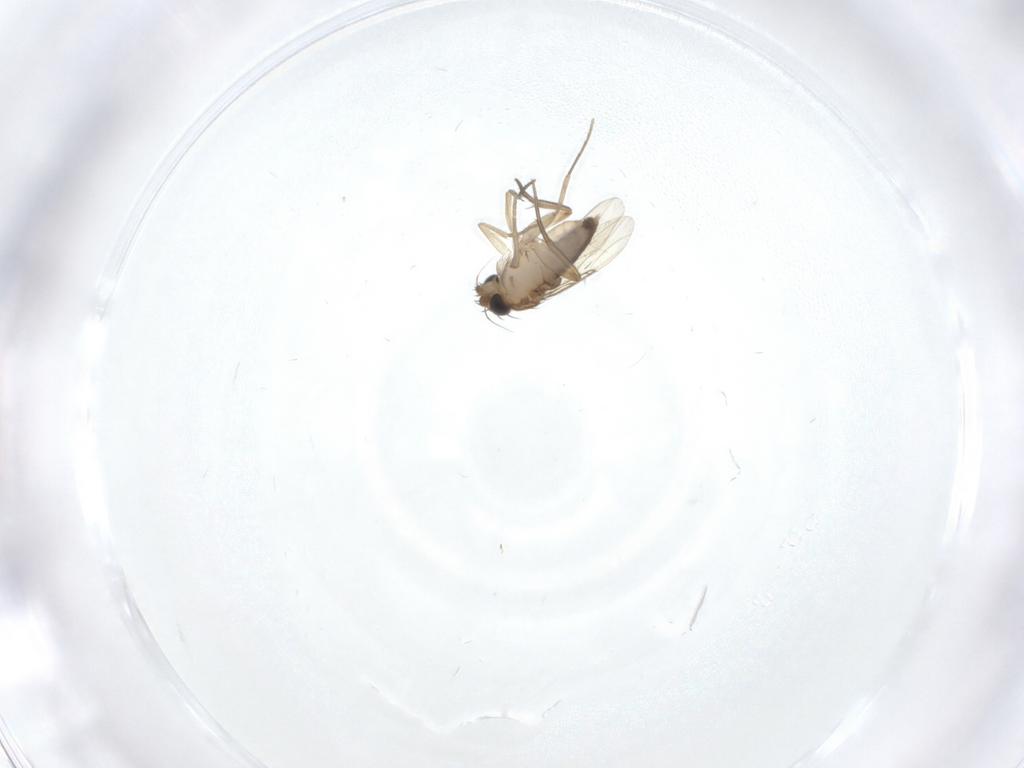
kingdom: Animalia
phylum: Arthropoda
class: Insecta
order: Diptera
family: Phoridae
